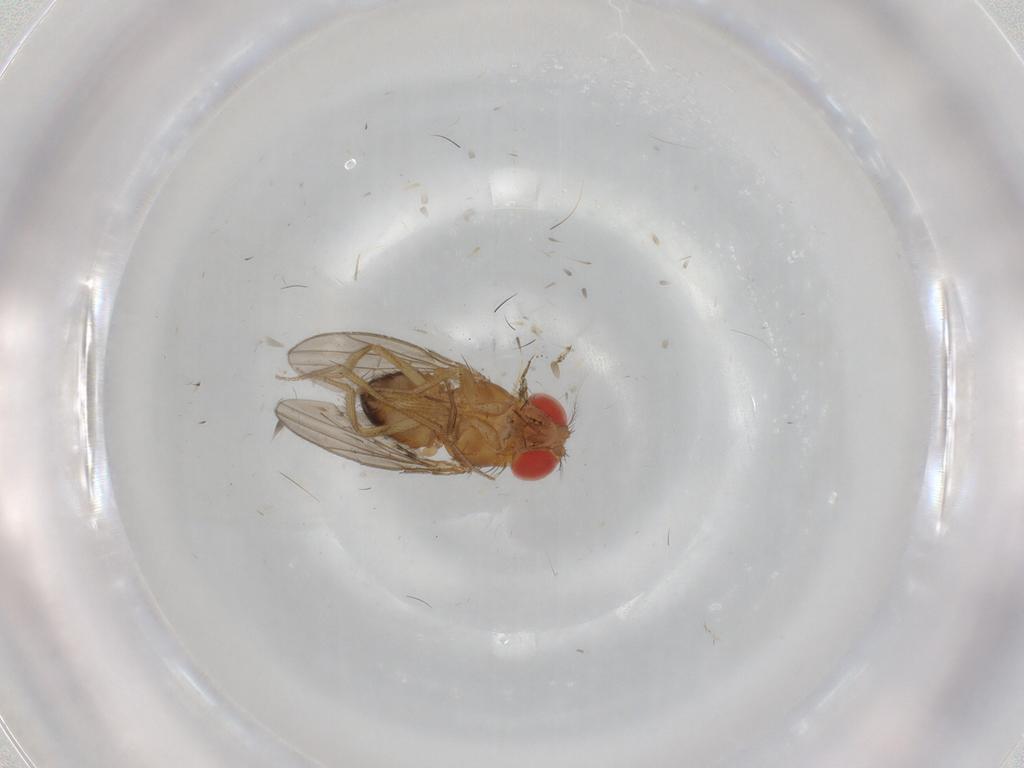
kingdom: Animalia
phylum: Arthropoda
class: Insecta
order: Diptera
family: Drosophilidae
